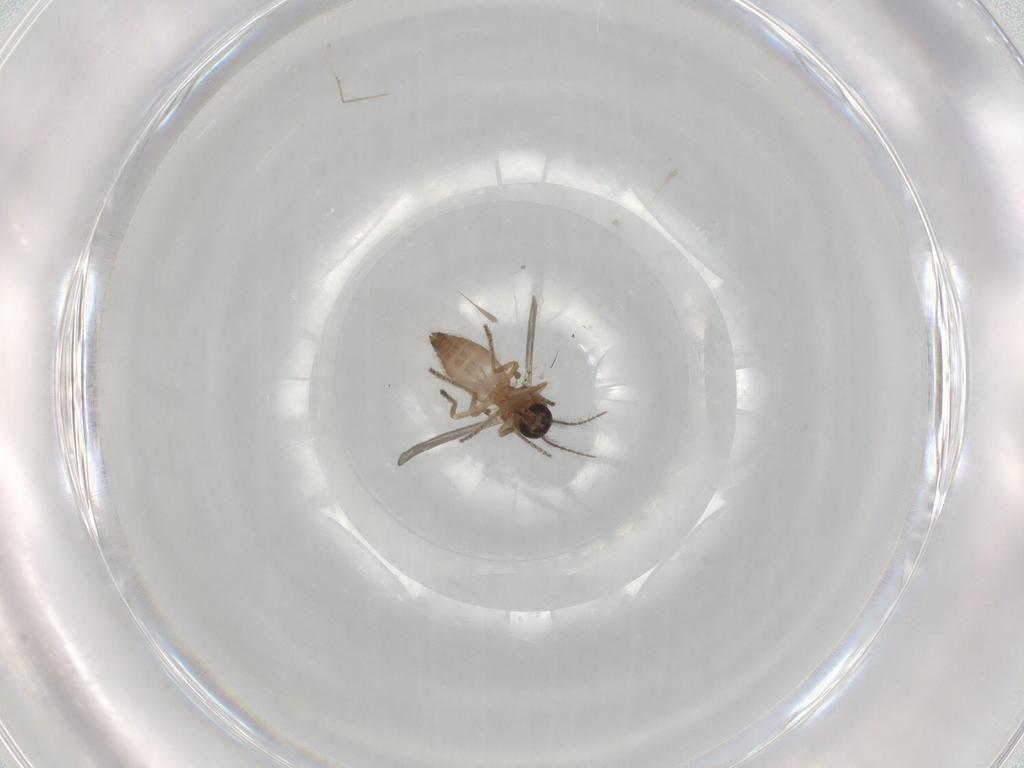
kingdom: Animalia
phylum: Arthropoda
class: Insecta
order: Diptera
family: Ceratopogonidae
